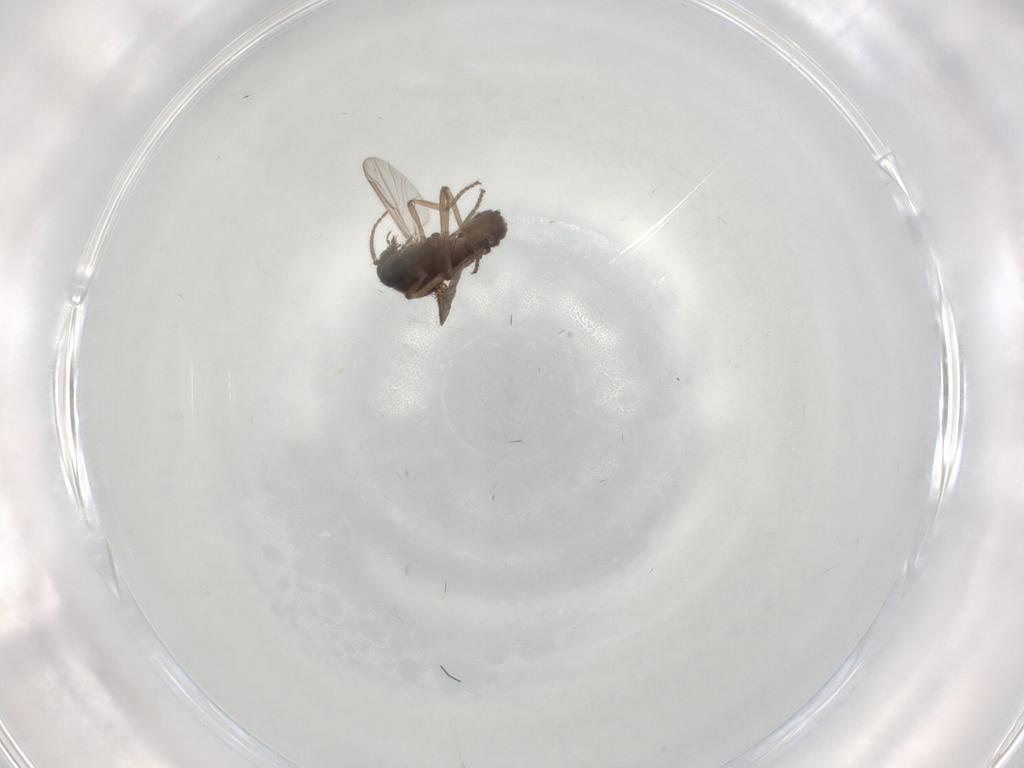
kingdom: Animalia
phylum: Arthropoda
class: Insecta
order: Diptera
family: Ceratopogonidae
